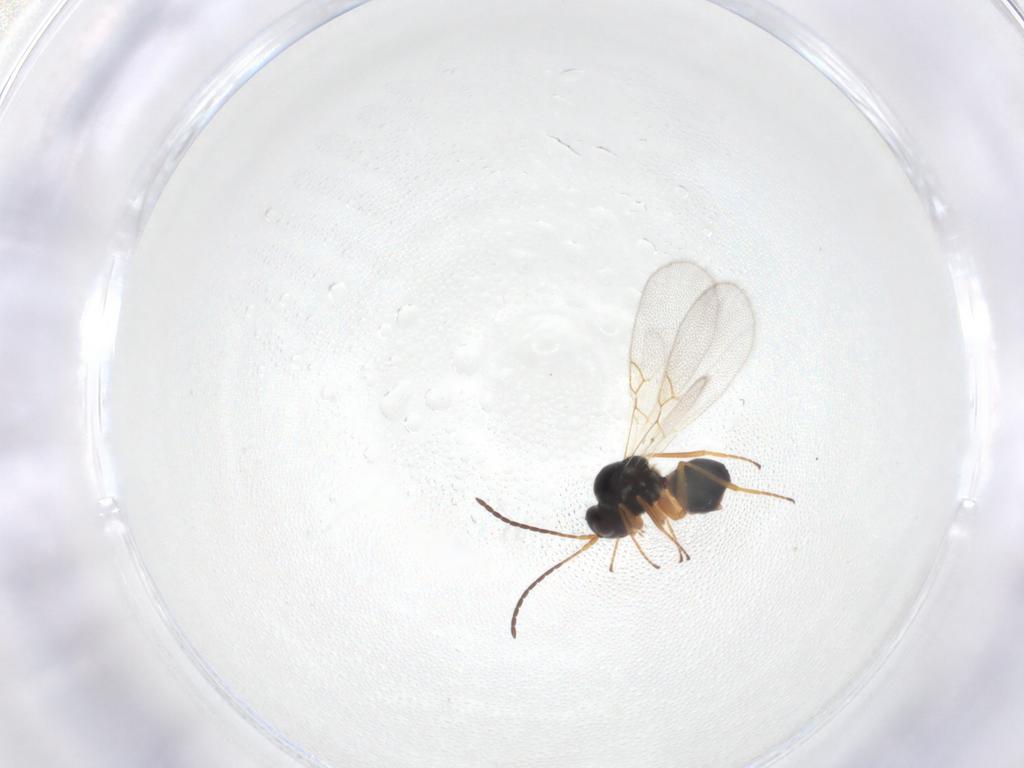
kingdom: Animalia
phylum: Arthropoda
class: Insecta
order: Hymenoptera
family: Figitidae
